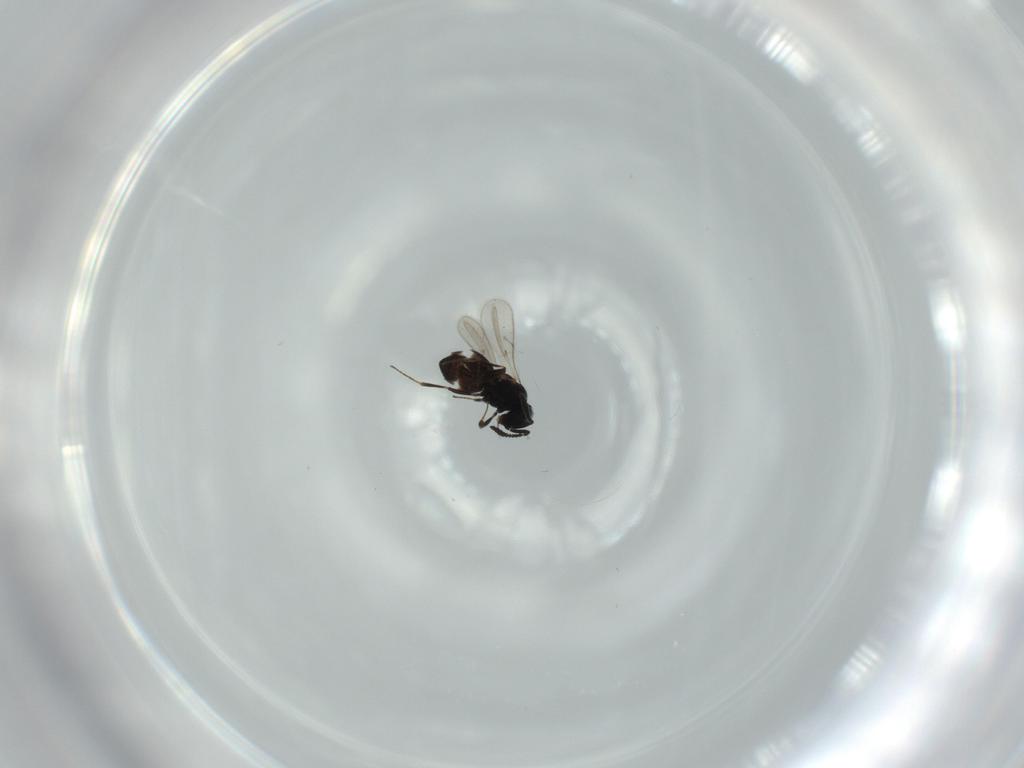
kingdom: Animalia
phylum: Arthropoda
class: Insecta
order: Hymenoptera
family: Scelionidae
